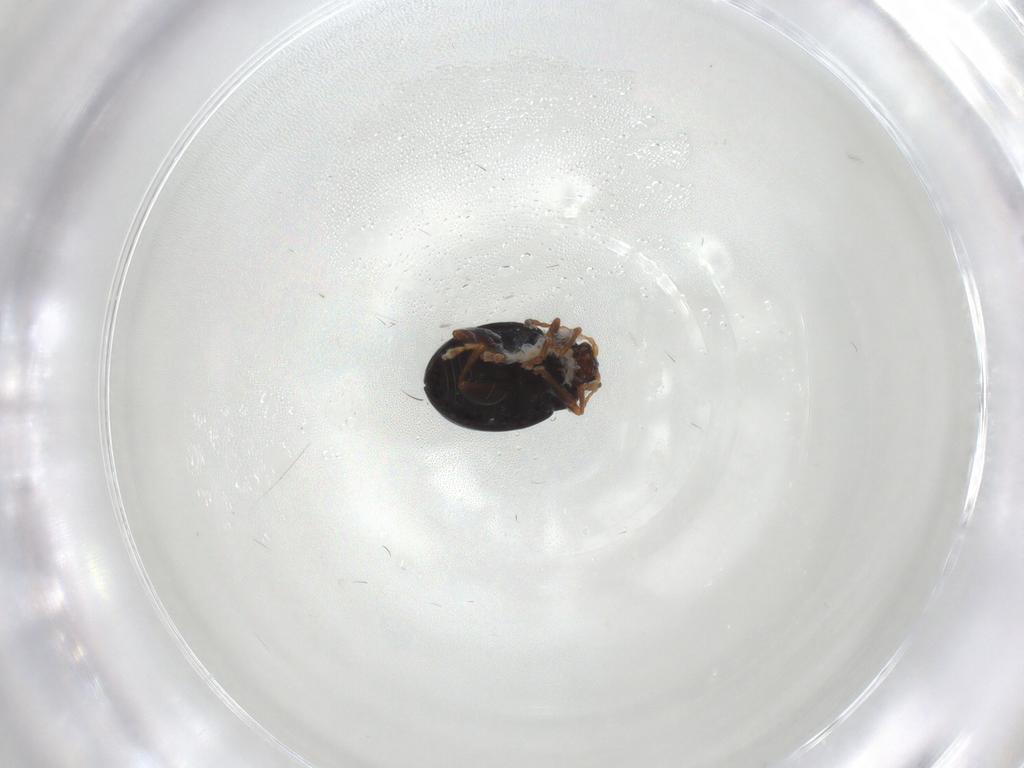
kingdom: Animalia
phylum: Arthropoda
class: Insecta
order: Coleoptera
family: Chrysomelidae
